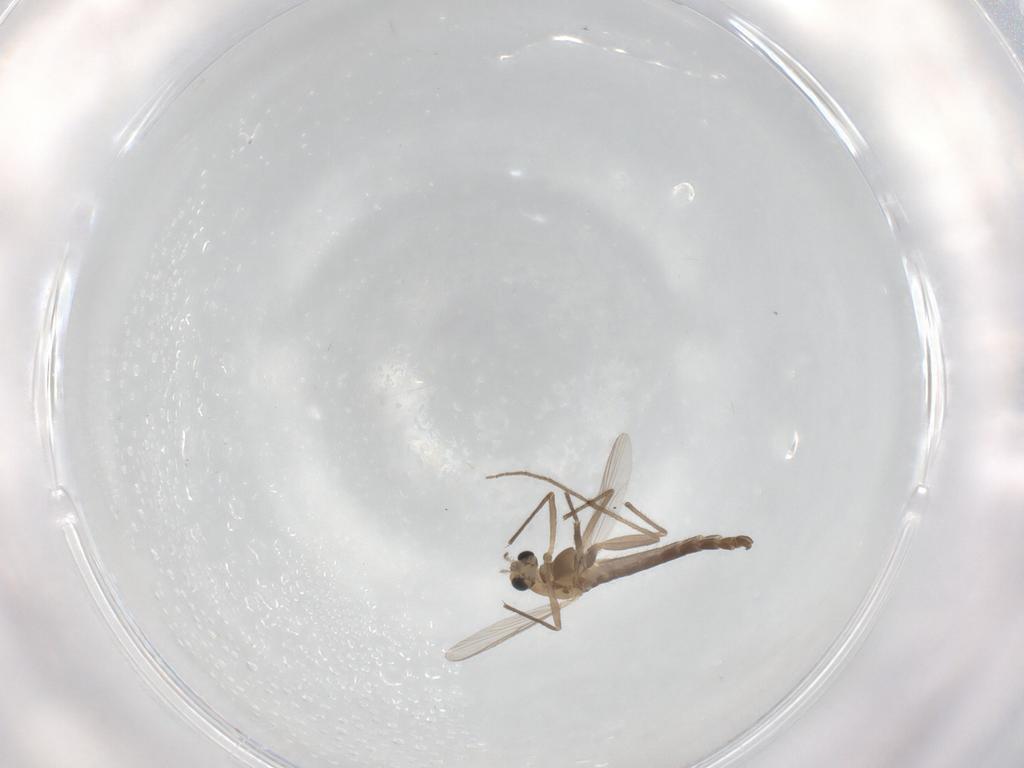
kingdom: Animalia
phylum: Arthropoda
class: Insecta
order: Diptera
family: Chironomidae
